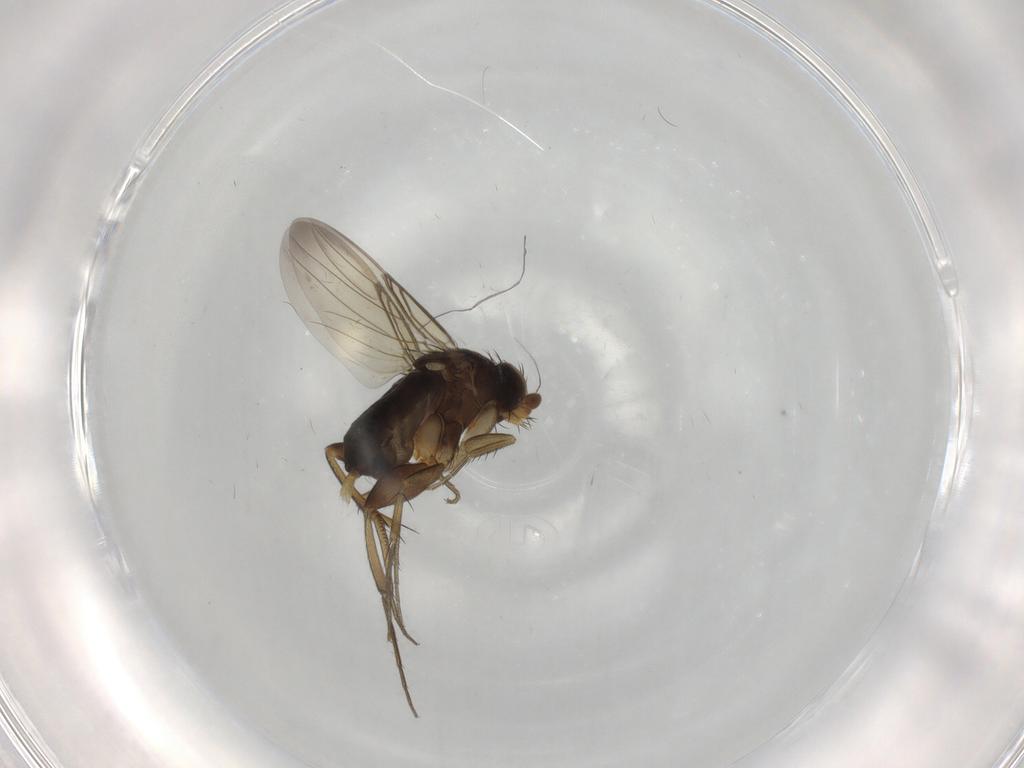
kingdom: Animalia
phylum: Arthropoda
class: Insecta
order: Diptera
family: Phoridae
